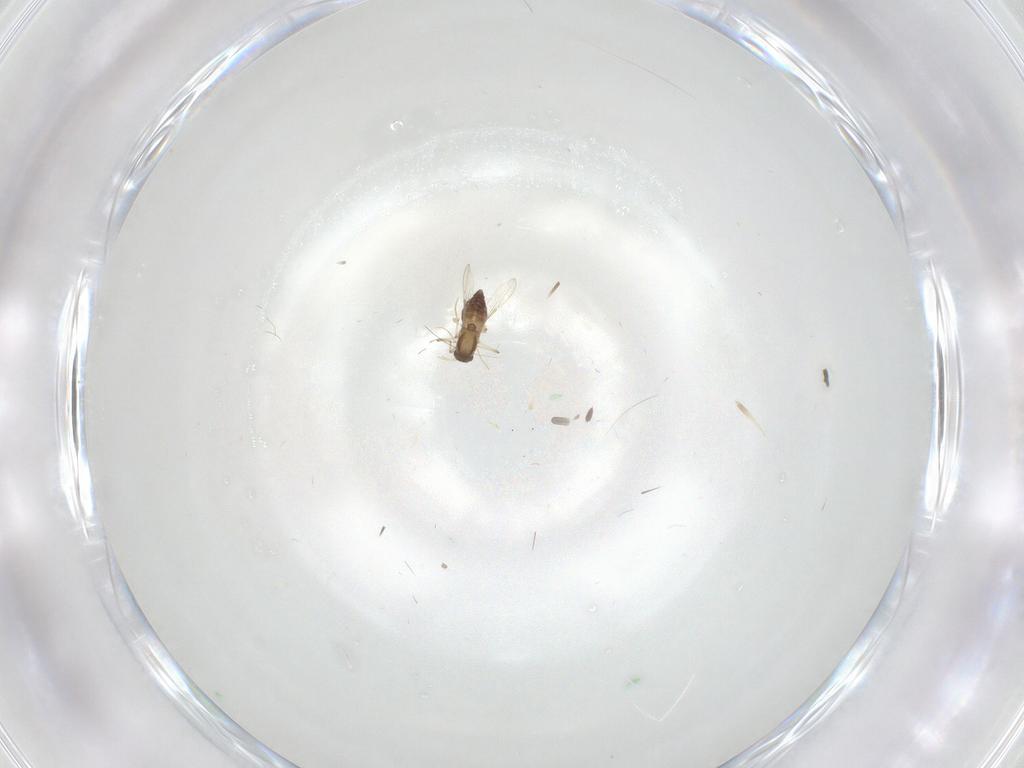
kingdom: Animalia
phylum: Arthropoda
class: Insecta
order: Diptera
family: Chironomidae
